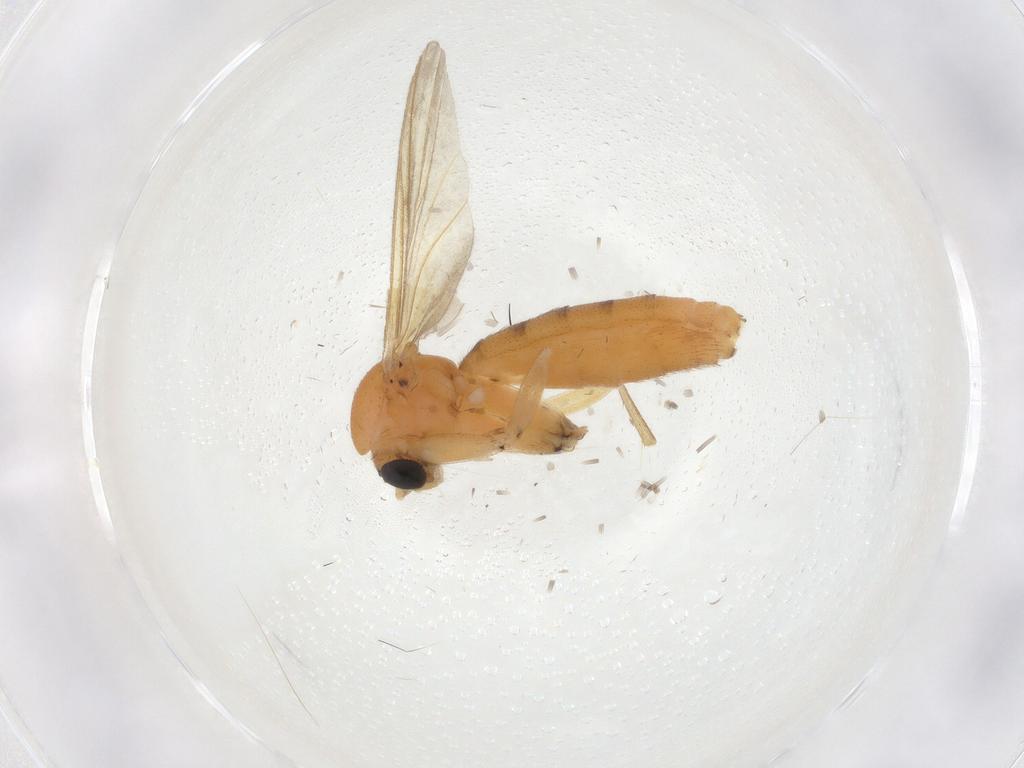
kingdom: Animalia
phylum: Arthropoda
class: Insecta
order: Diptera
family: Mycetophilidae
